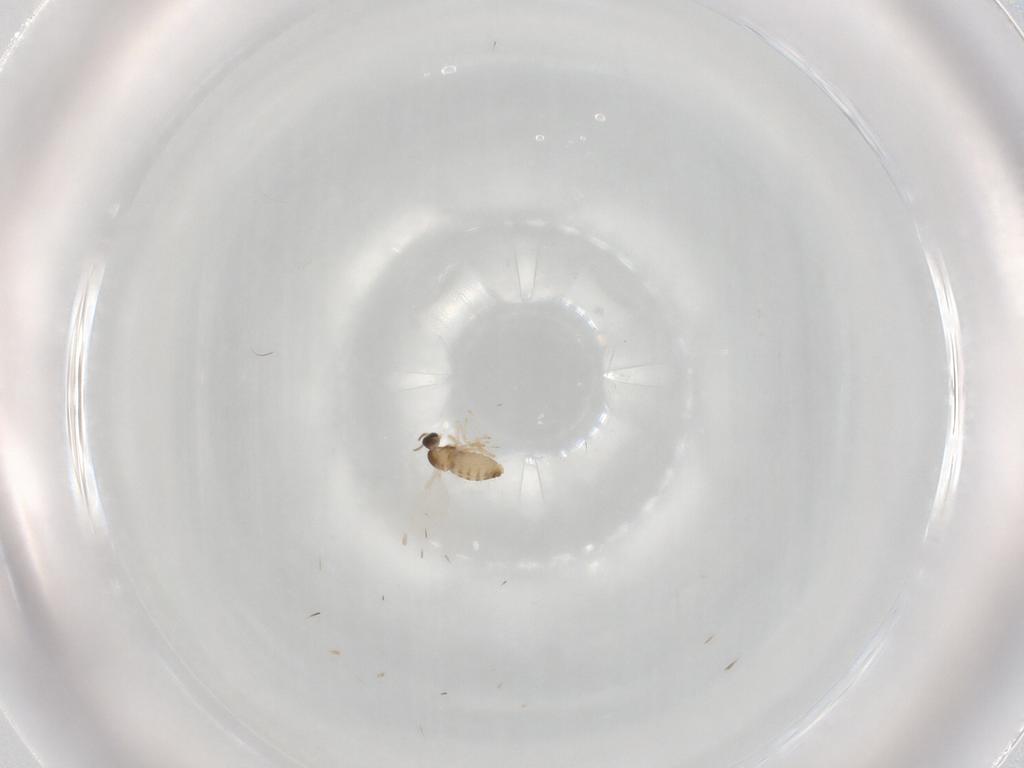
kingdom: Animalia
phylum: Arthropoda
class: Insecta
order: Diptera
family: Cecidomyiidae
